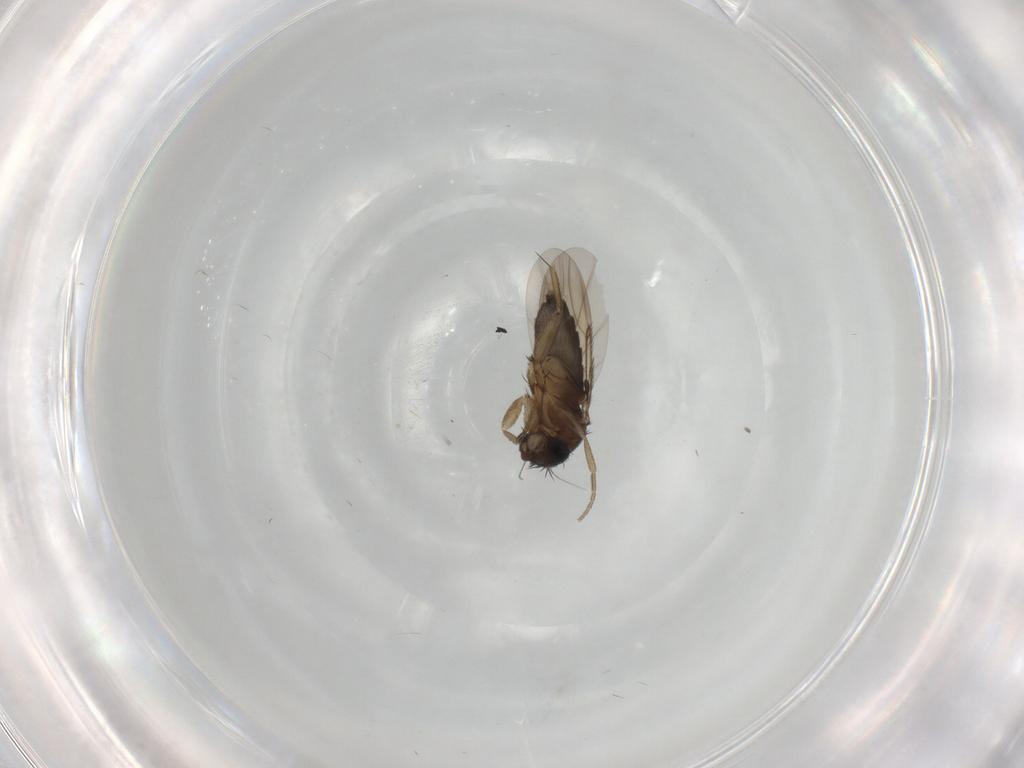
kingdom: Animalia
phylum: Arthropoda
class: Insecta
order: Diptera
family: Phoridae
